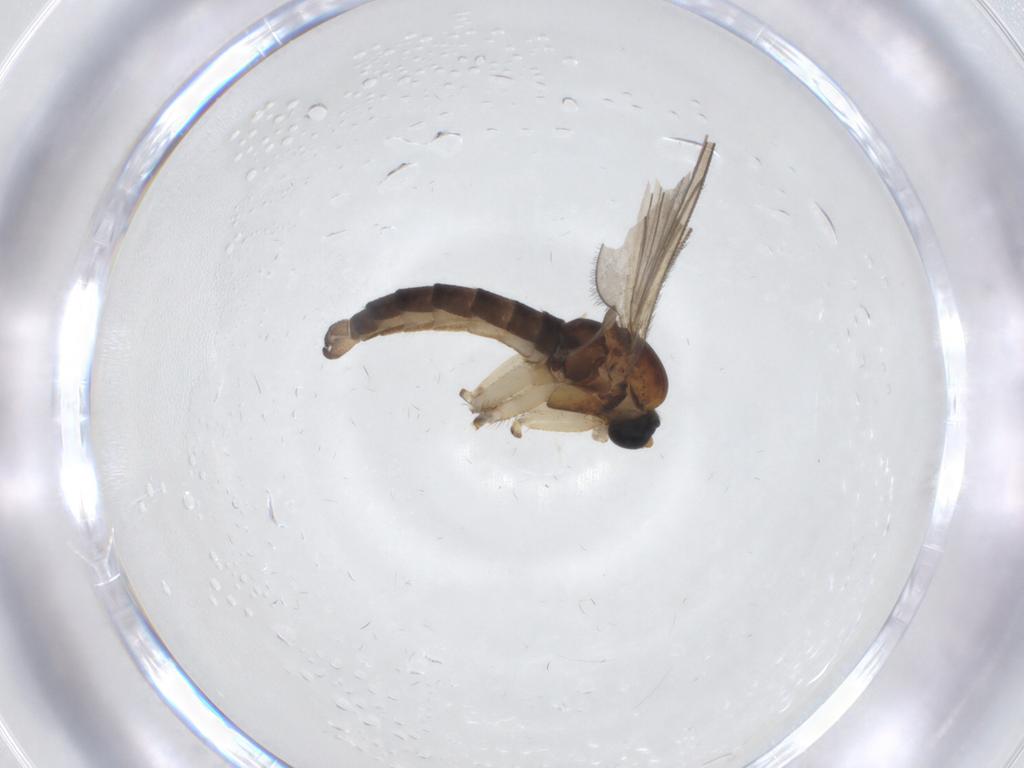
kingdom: Animalia
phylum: Arthropoda
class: Insecta
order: Diptera
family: Sciaridae
